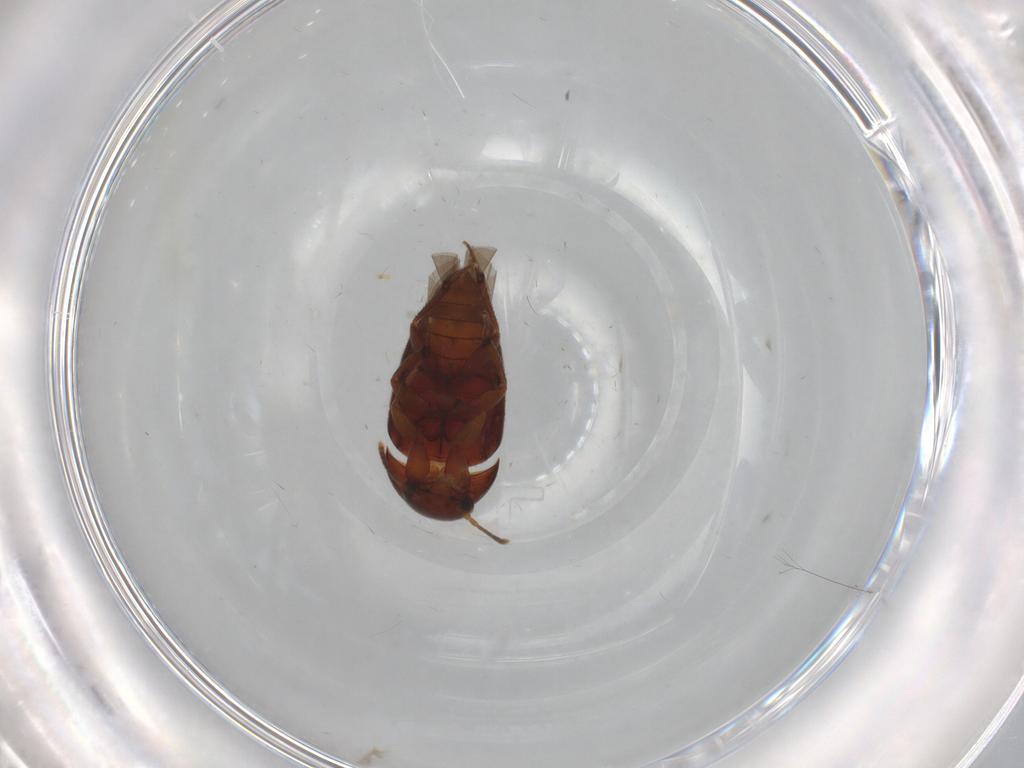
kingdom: Animalia
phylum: Arthropoda
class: Insecta
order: Coleoptera
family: Leiodidae
